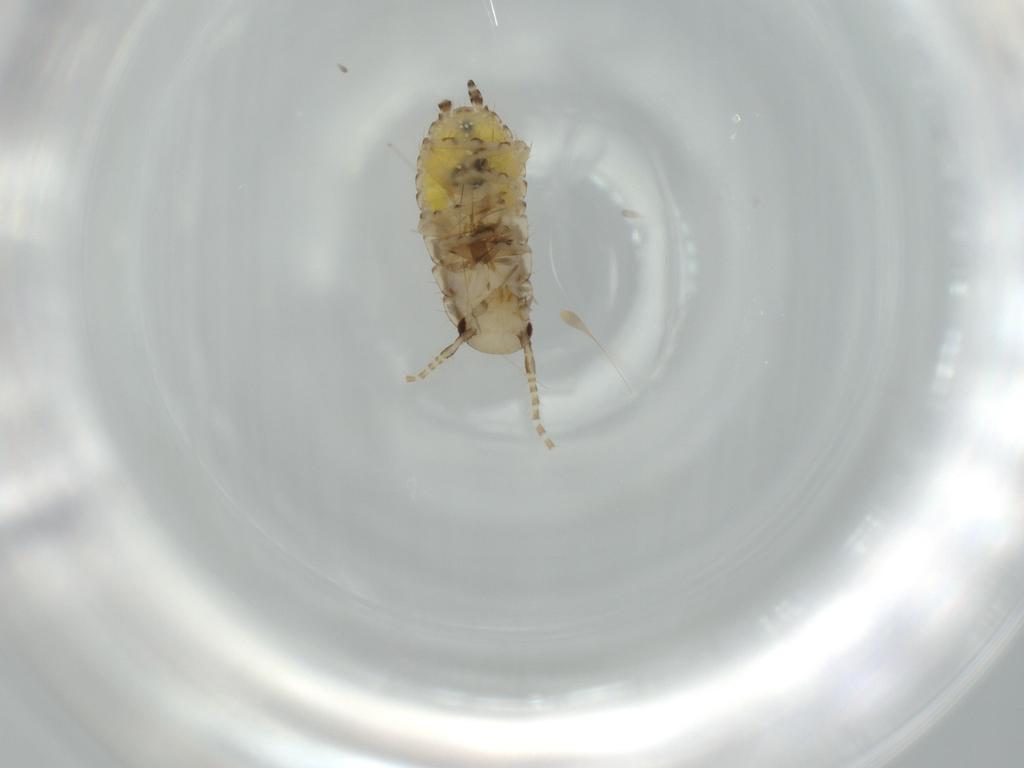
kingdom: Animalia
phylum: Arthropoda
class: Insecta
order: Blattodea
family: Ectobiidae
